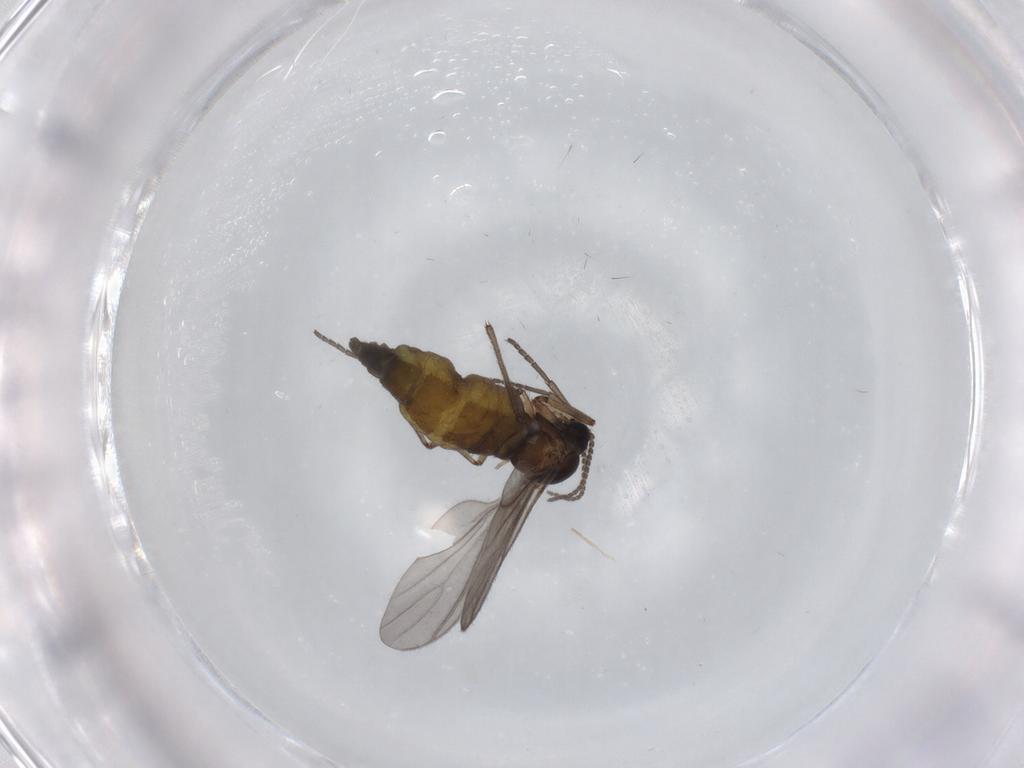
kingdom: Animalia
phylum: Arthropoda
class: Insecta
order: Diptera
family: Sciaridae
